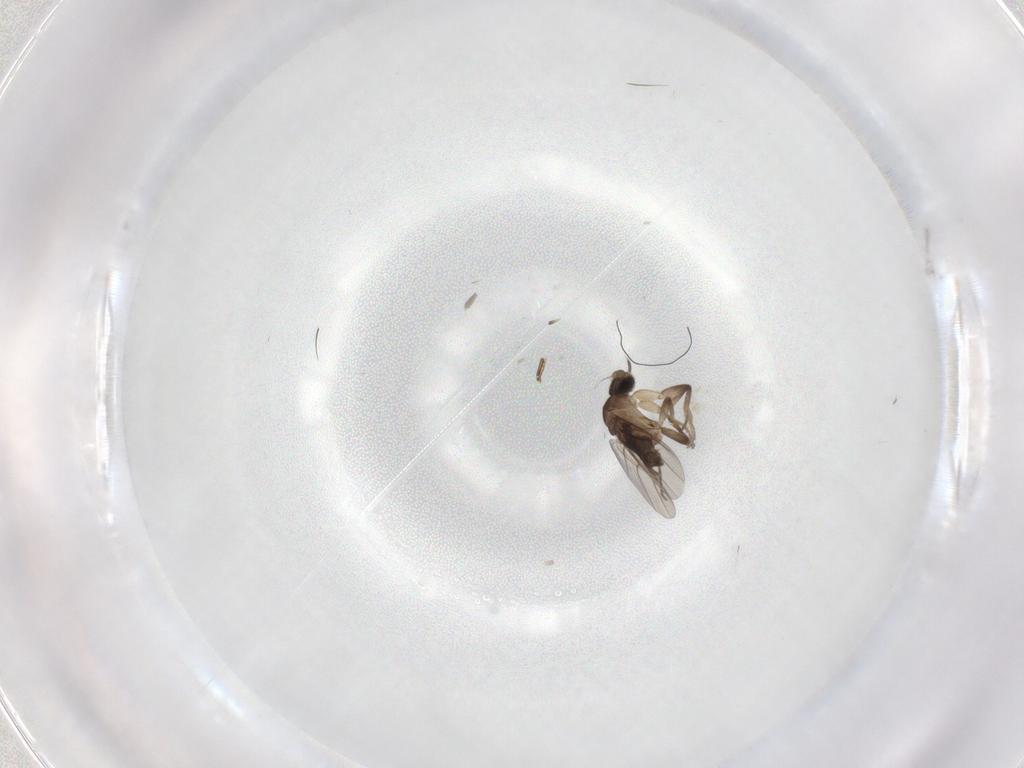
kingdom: Animalia
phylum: Arthropoda
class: Insecta
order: Diptera
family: Phoridae
